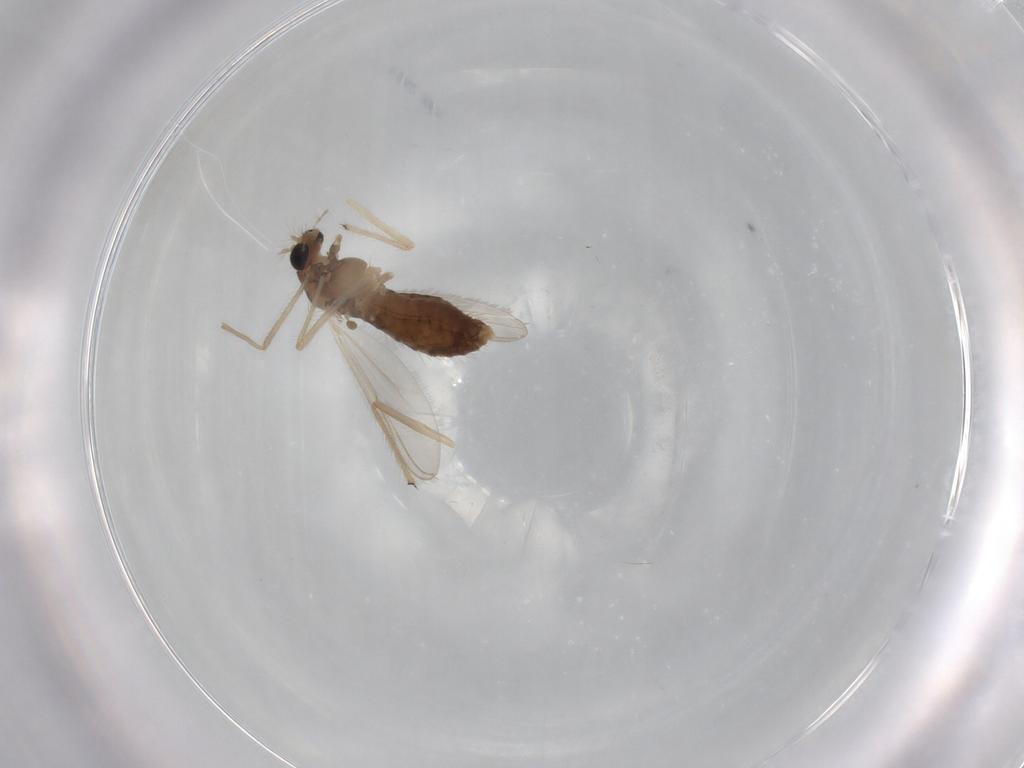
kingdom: Animalia
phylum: Arthropoda
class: Insecta
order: Diptera
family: Chironomidae
